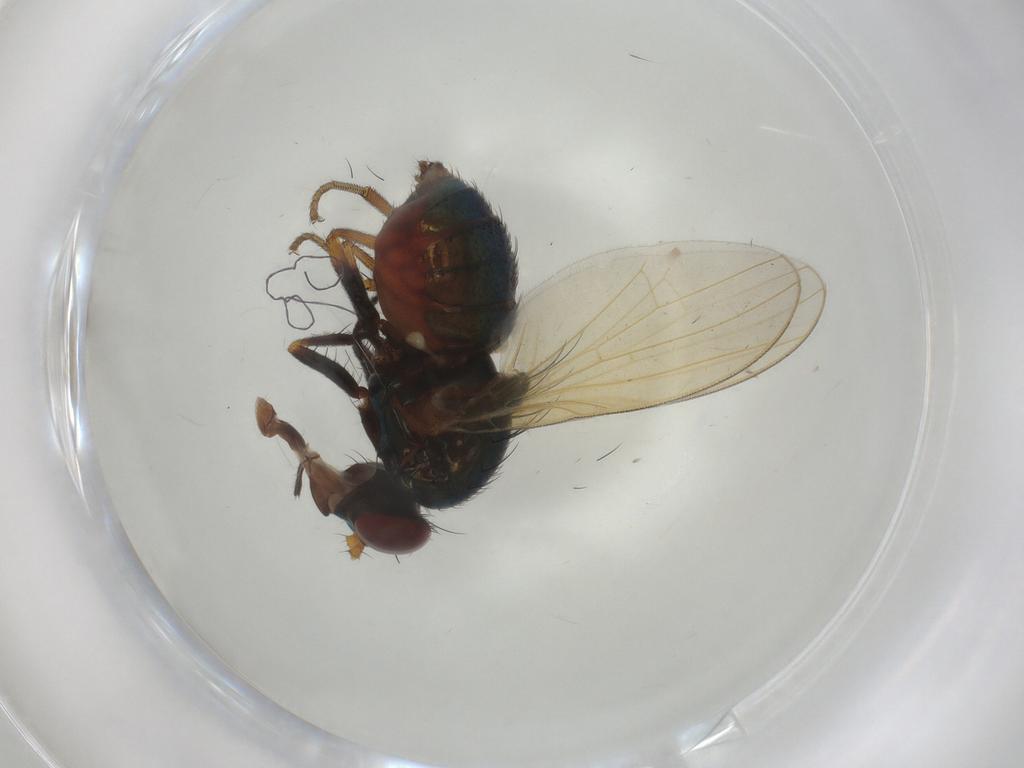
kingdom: Animalia
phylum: Arthropoda
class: Insecta
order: Diptera
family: Lauxaniidae
